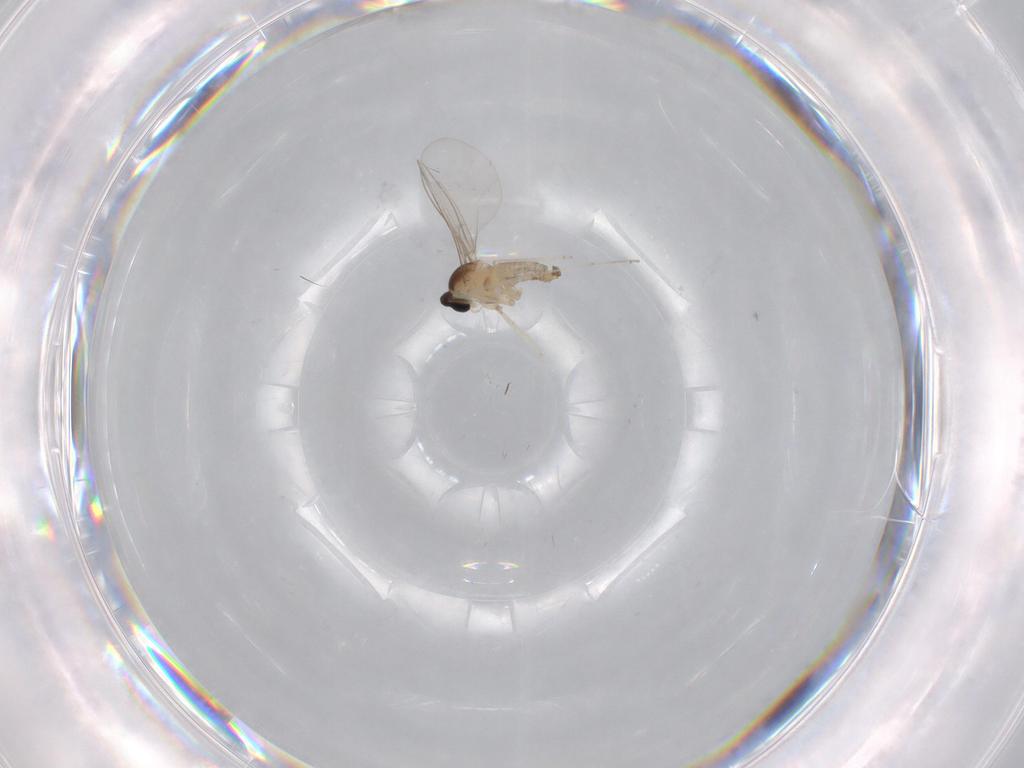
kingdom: Animalia
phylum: Arthropoda
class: Insecta
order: Diptera
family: Cecidomyiidae
